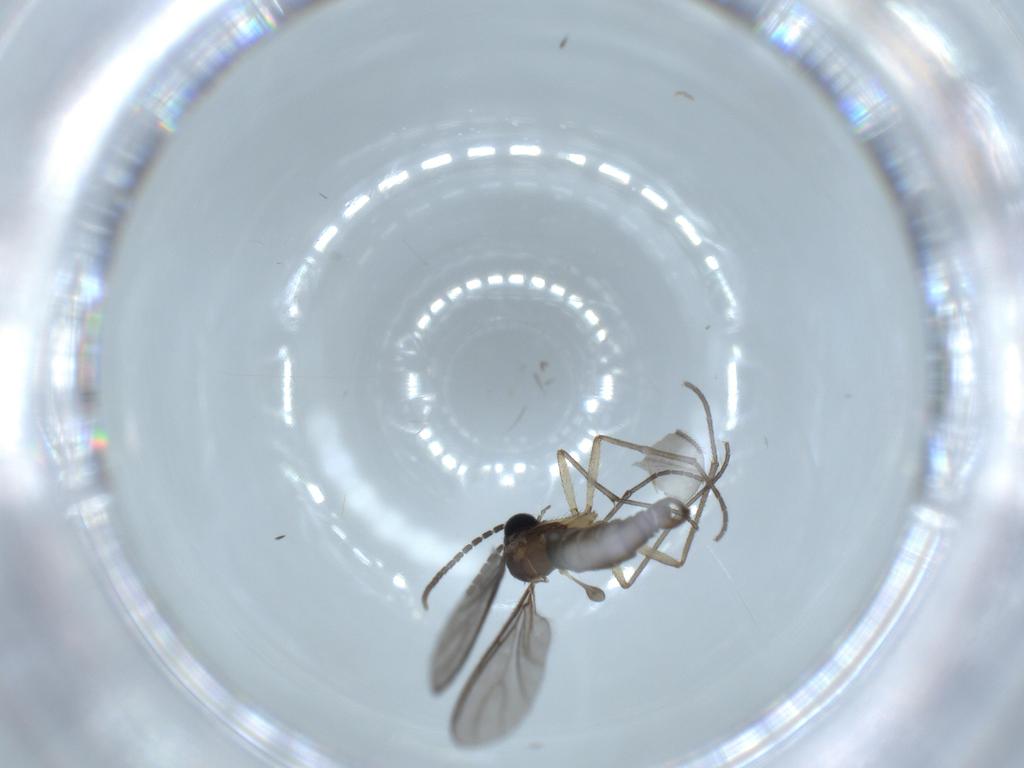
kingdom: Animalia
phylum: Arthropoda
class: Insecta
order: Diptera
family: Sciaridae
